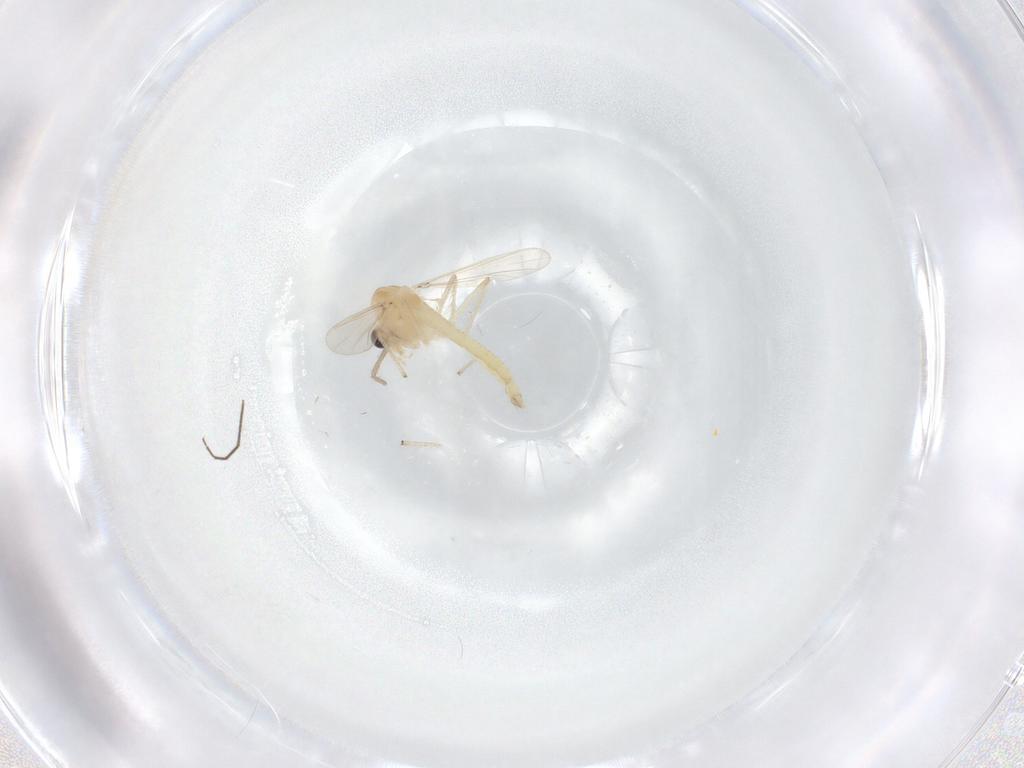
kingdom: Animalia
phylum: Arthropoda
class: Insecta
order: Diptera
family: Chironomidae
